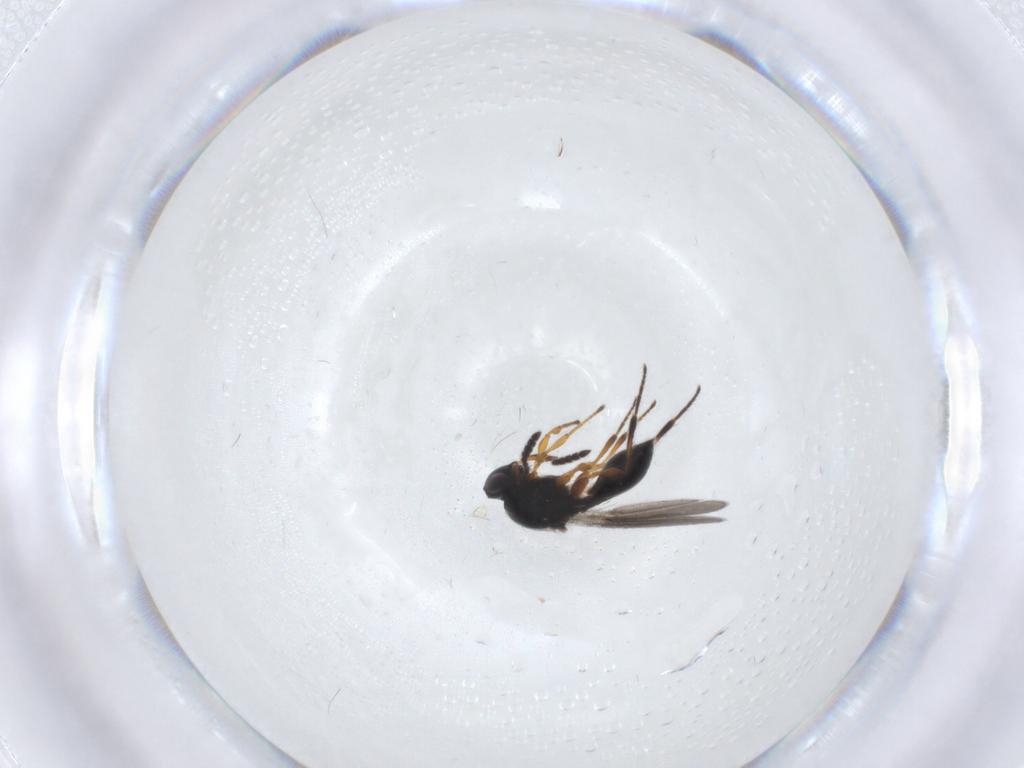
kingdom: Animalia
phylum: Arthropoda
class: Insecta
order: Hymenoptera
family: Platygastridae
